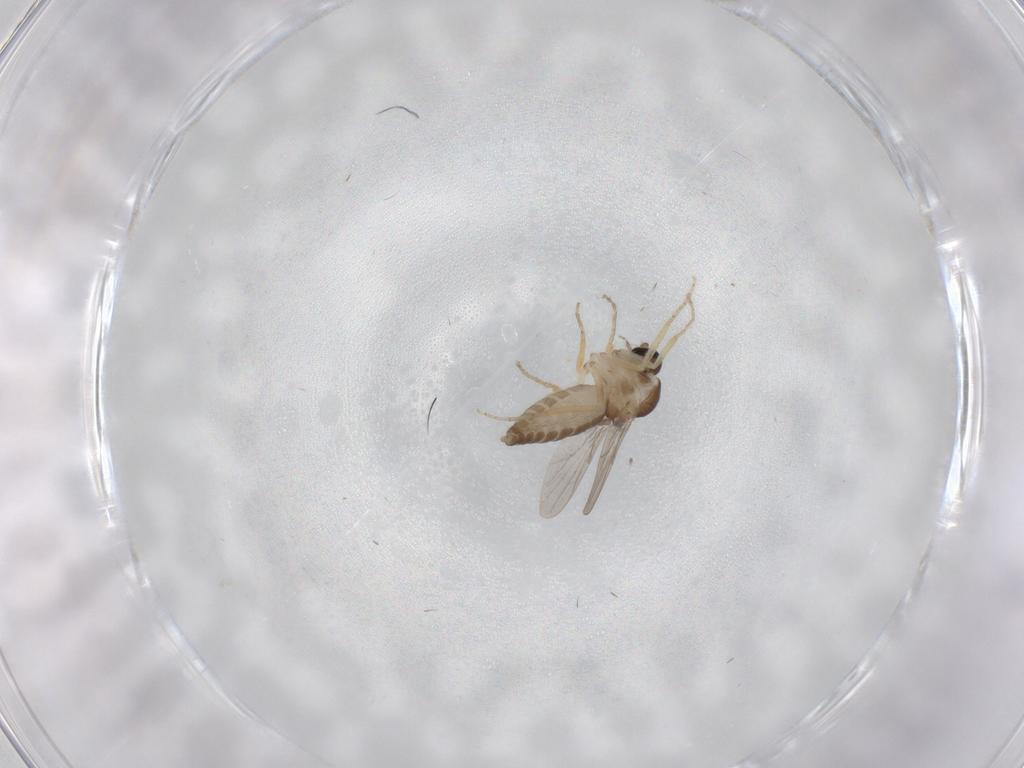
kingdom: Animalia
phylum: Arthropoda
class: Insecta
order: Diptera
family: Ceratopogonidae
